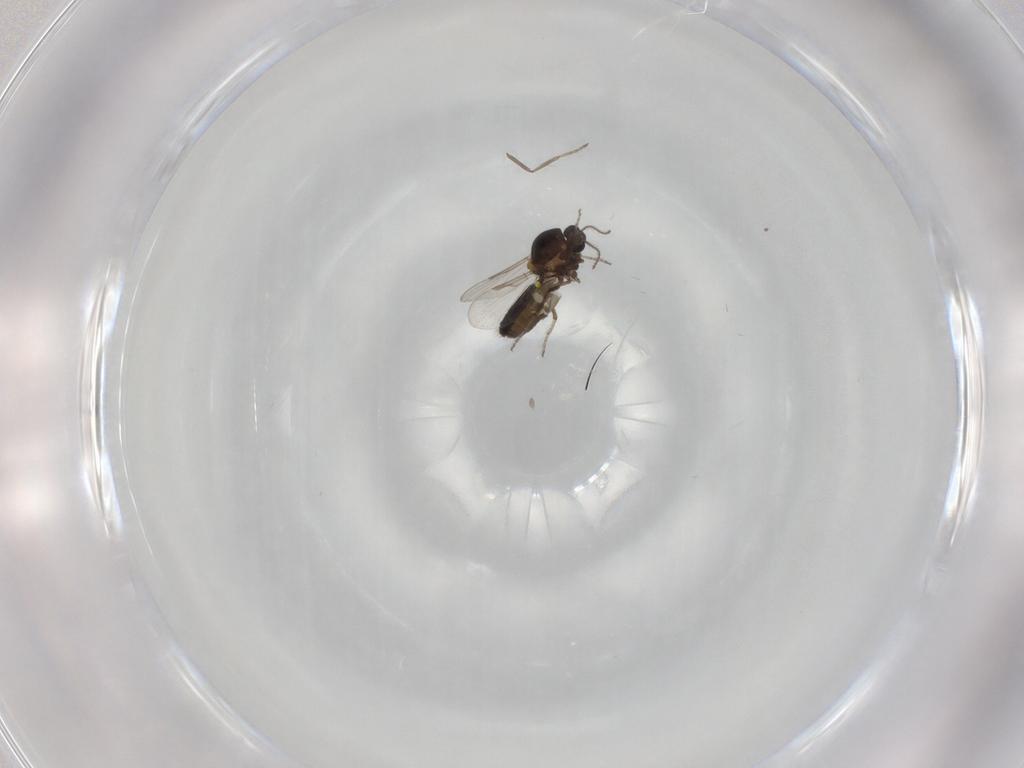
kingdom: Animalia
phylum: Arthropoda
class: Insecta
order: Diptera
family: Ceratopogonidae
